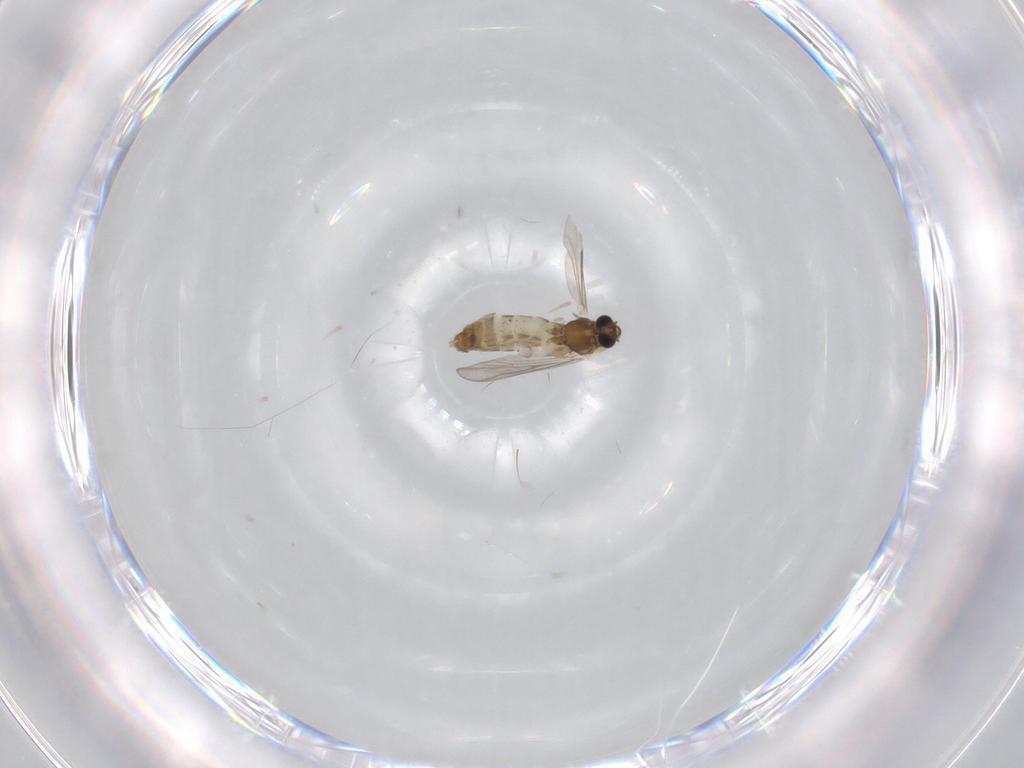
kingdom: Animalia
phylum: Arthropoda
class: Insecta
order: Diptera
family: Chironomidae
